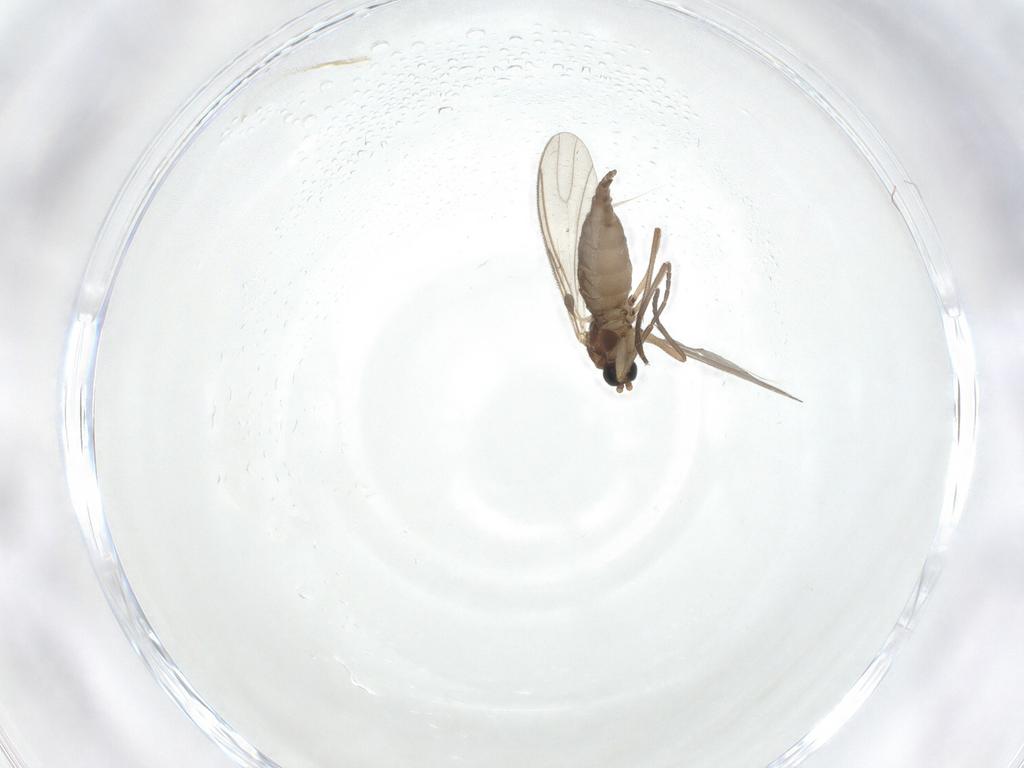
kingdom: Animalia
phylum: Arthropoda
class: Insecta
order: Diptera
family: Sciaridae
